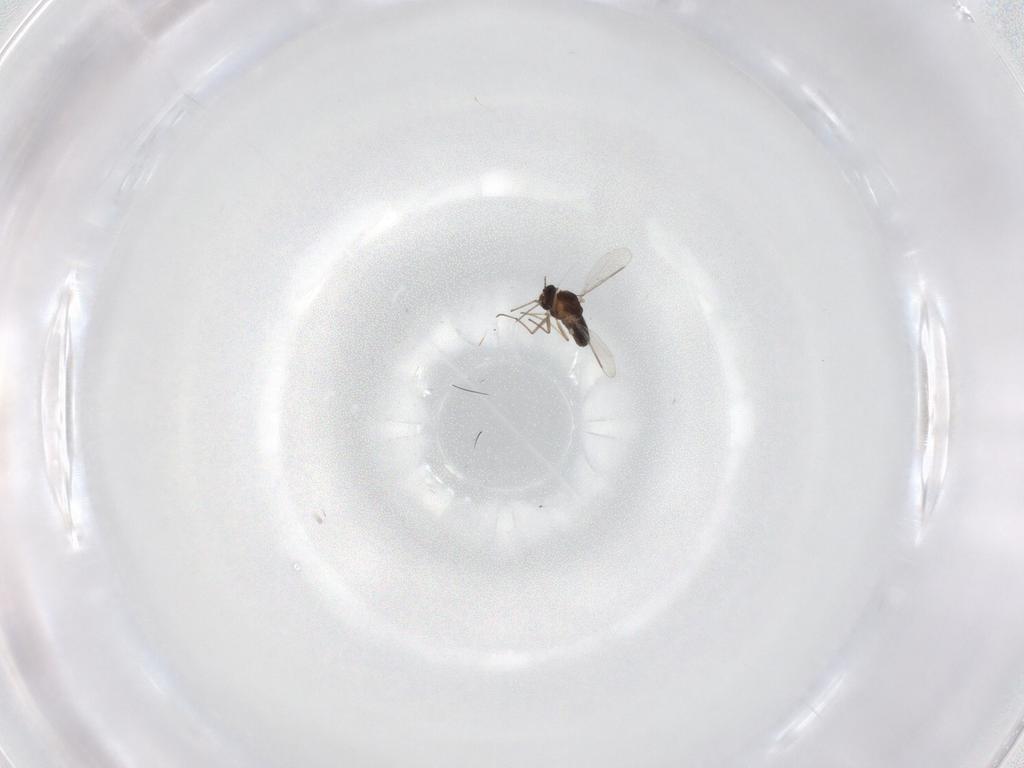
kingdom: Animalia
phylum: Arthropoda
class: Insecta
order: Diptera
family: Chironomidae
